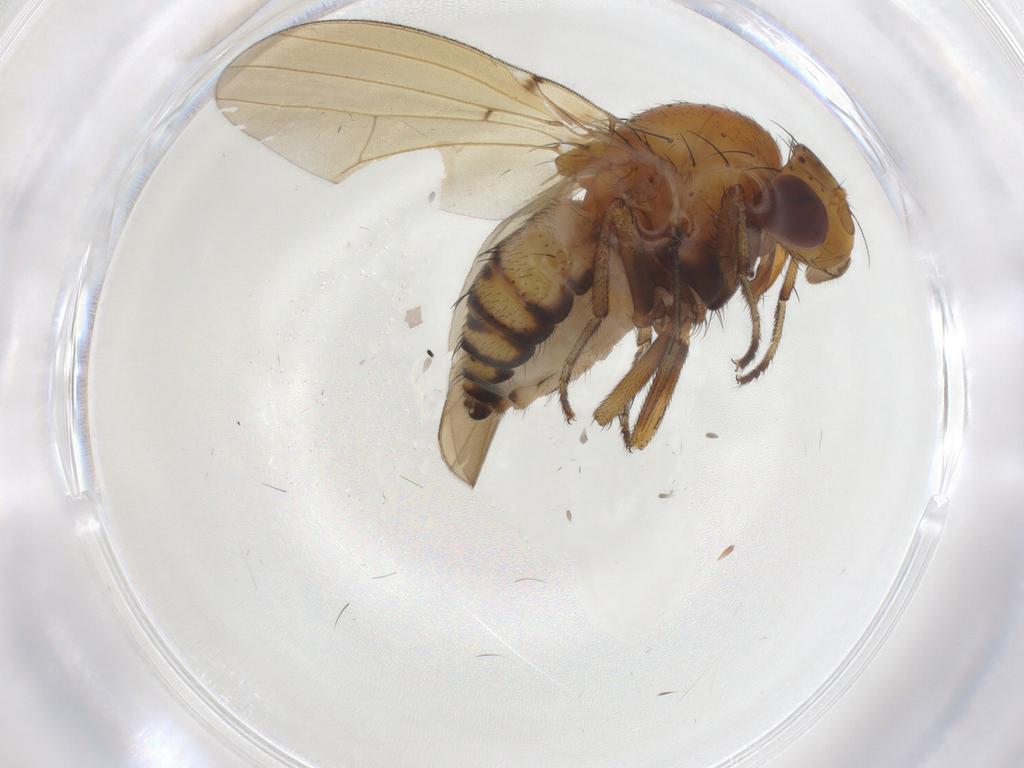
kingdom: Animalia
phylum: Arthropoda
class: Insecta
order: Diptera
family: Lauxaniidae
